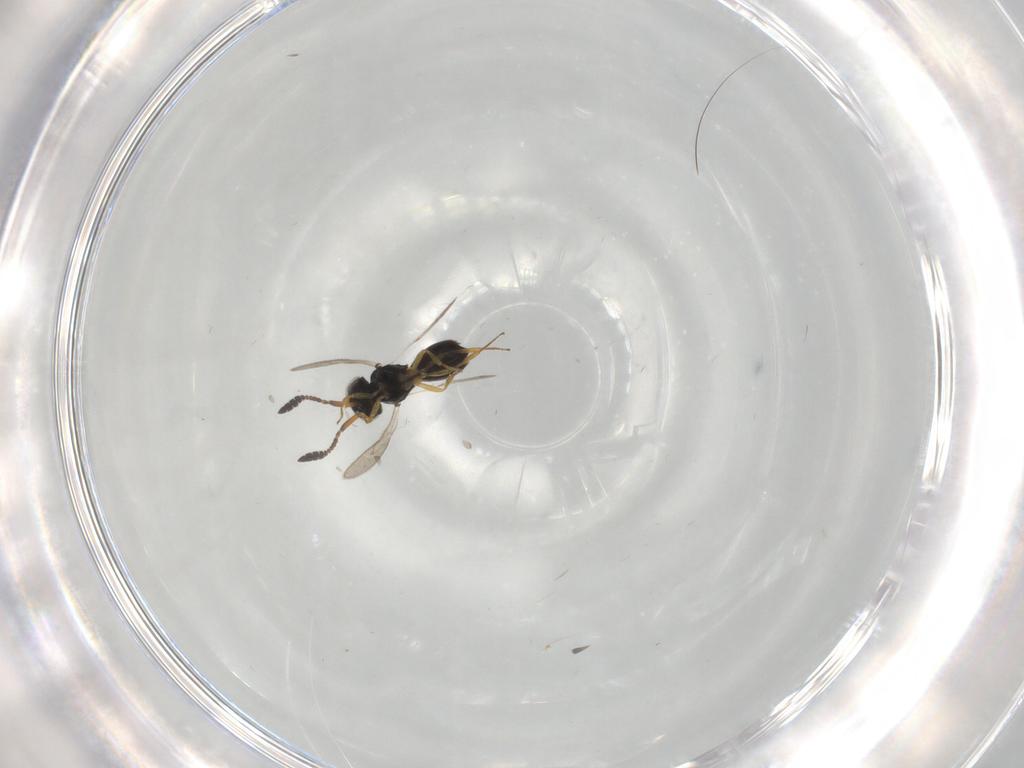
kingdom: Animalia
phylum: Arthropoda
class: Insecta
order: Hymenoptera
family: Scelionidae
